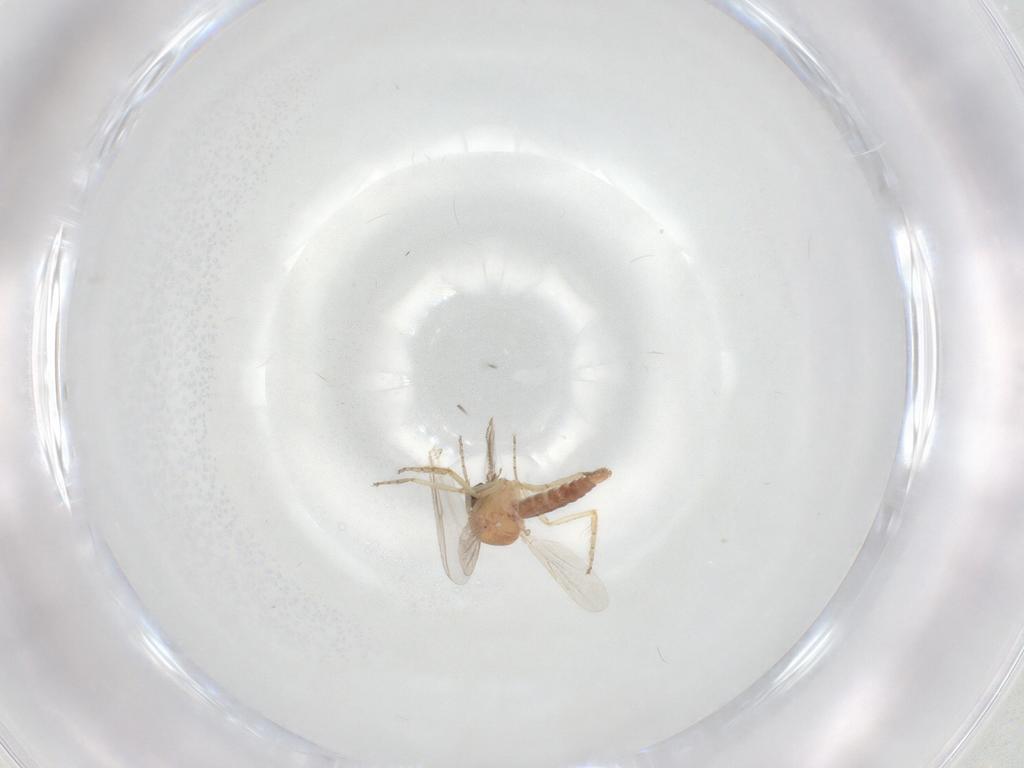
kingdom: Animalia
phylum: Arthropoda
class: Insecta
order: Diptera
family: Ceratopogonidae
